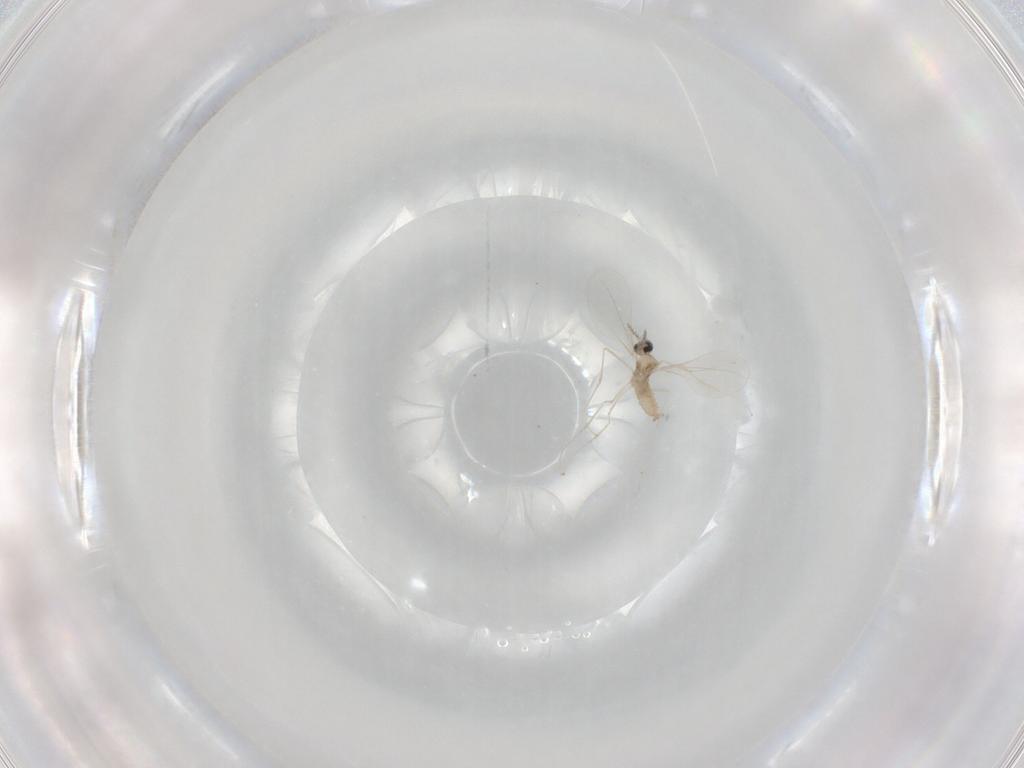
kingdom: Animalia
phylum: Arthropoda
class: Insecta
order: Diptera
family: Cecidomyiidae
